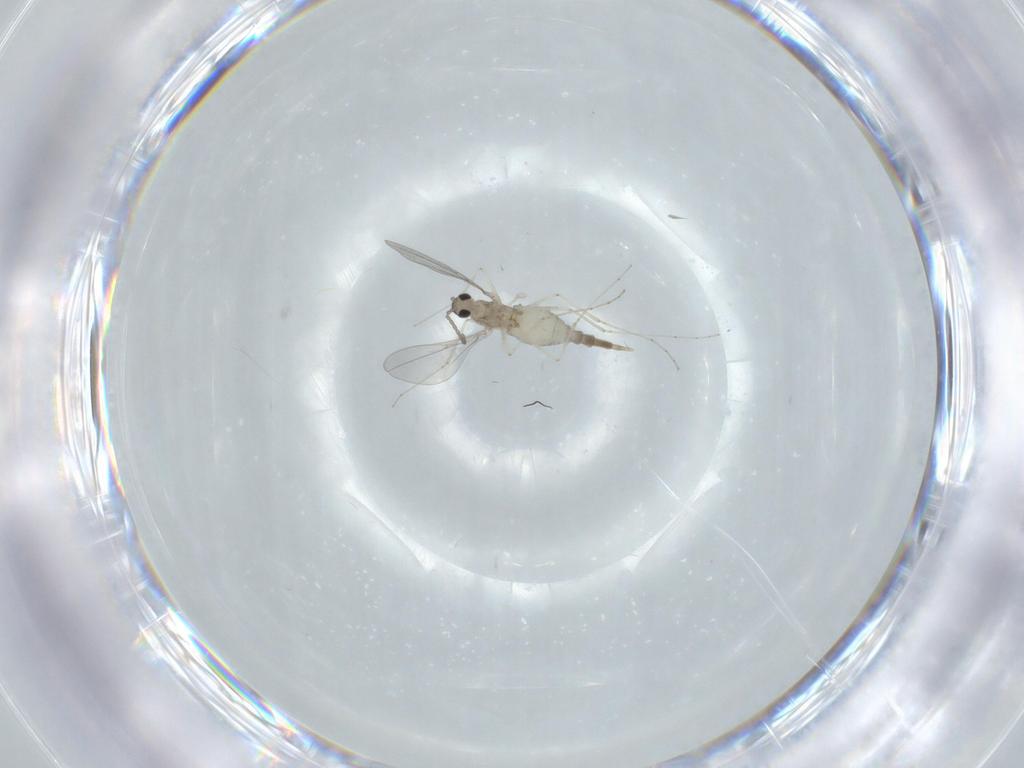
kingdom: Animalia
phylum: Arthropoda
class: Insecta
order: Diptera
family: Cecidomyiidae
